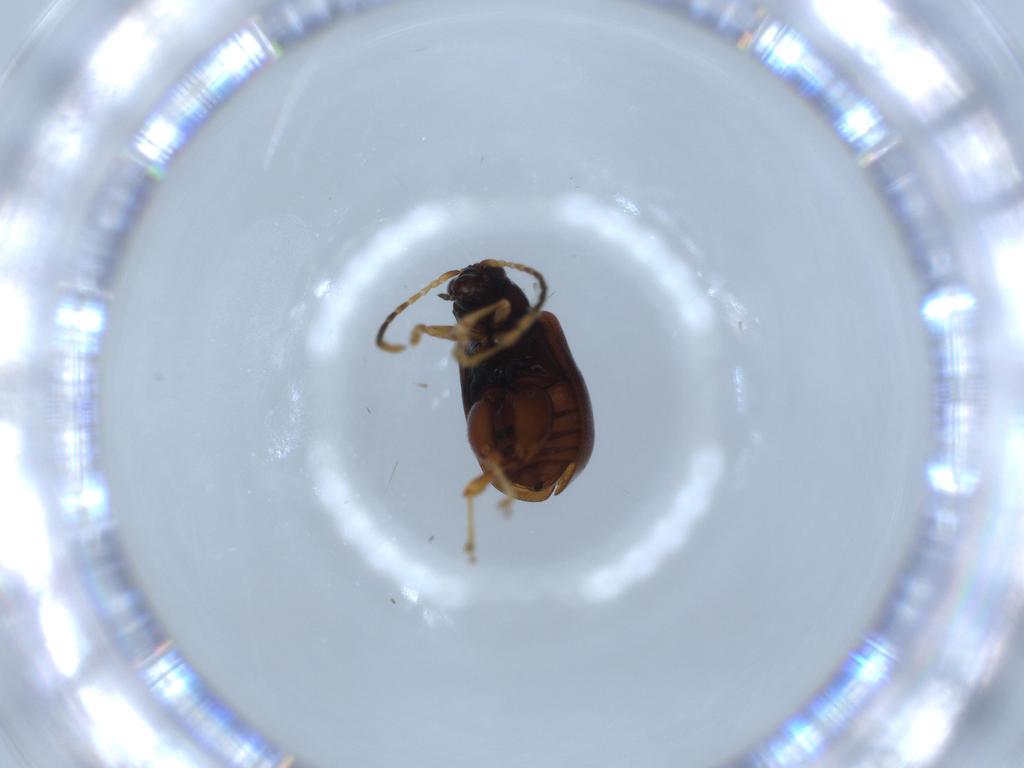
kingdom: Animalia
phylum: Arthropoda
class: Insecta
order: Coleoptera
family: Chrysomelidae
